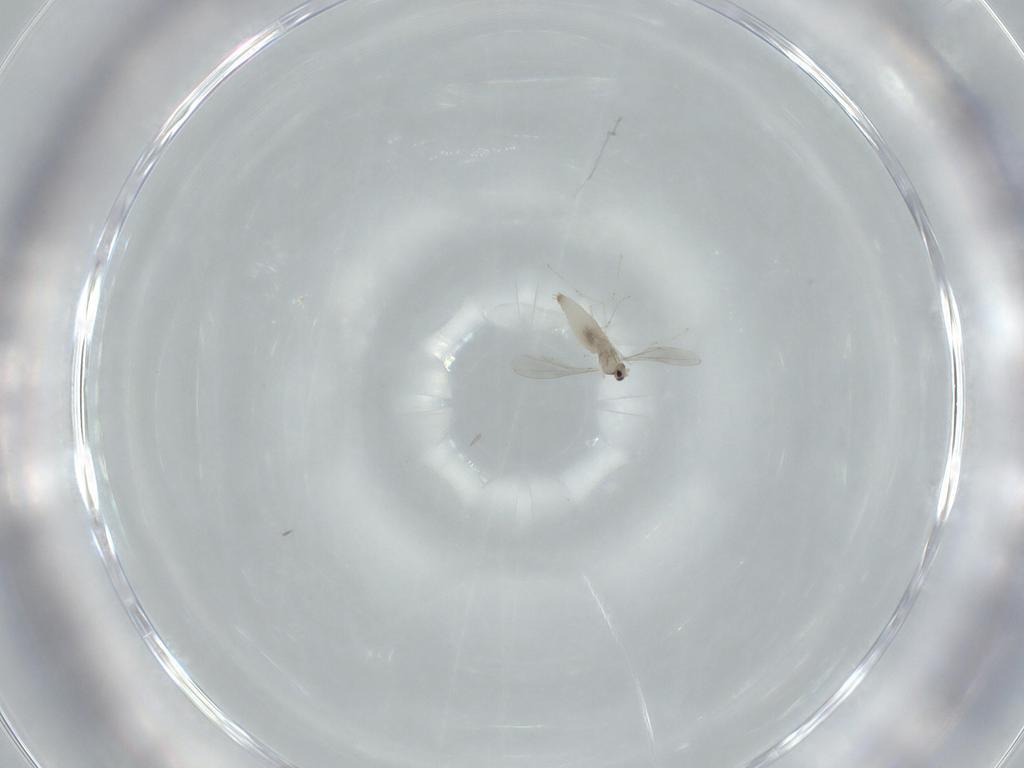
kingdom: Animalia
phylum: Arthropoda
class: Insecta
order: Diptera
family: Cecidomyiidae
